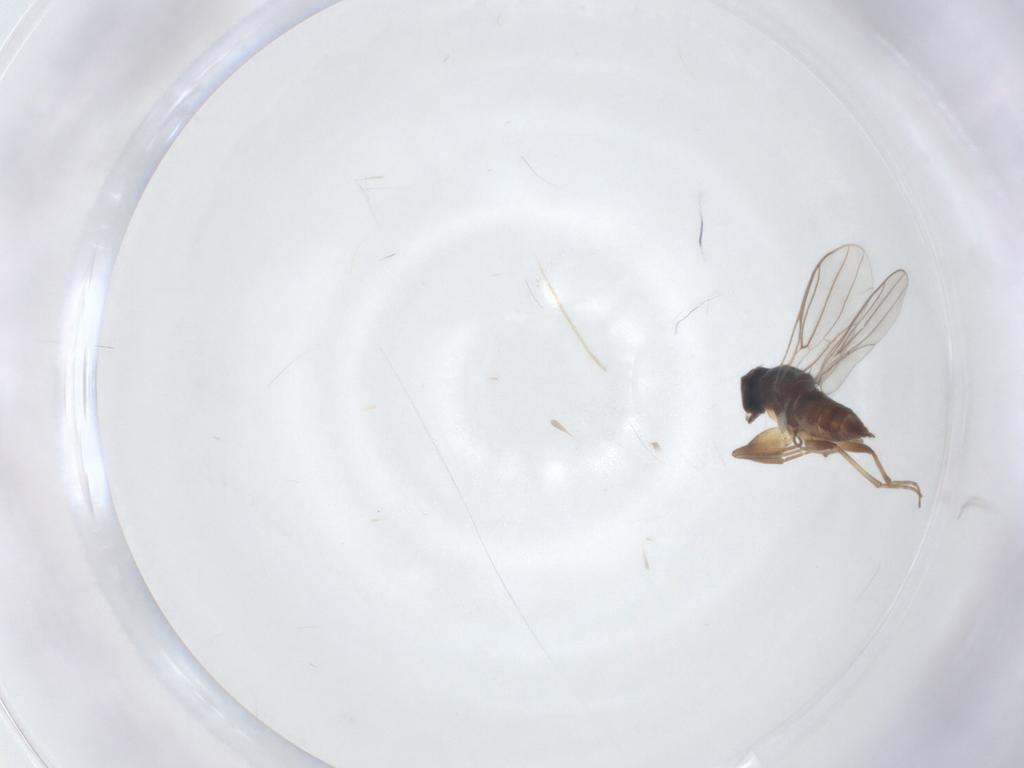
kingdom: Animalia
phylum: Arthropoda
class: Insecta
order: Diptera
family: Hybotidae
